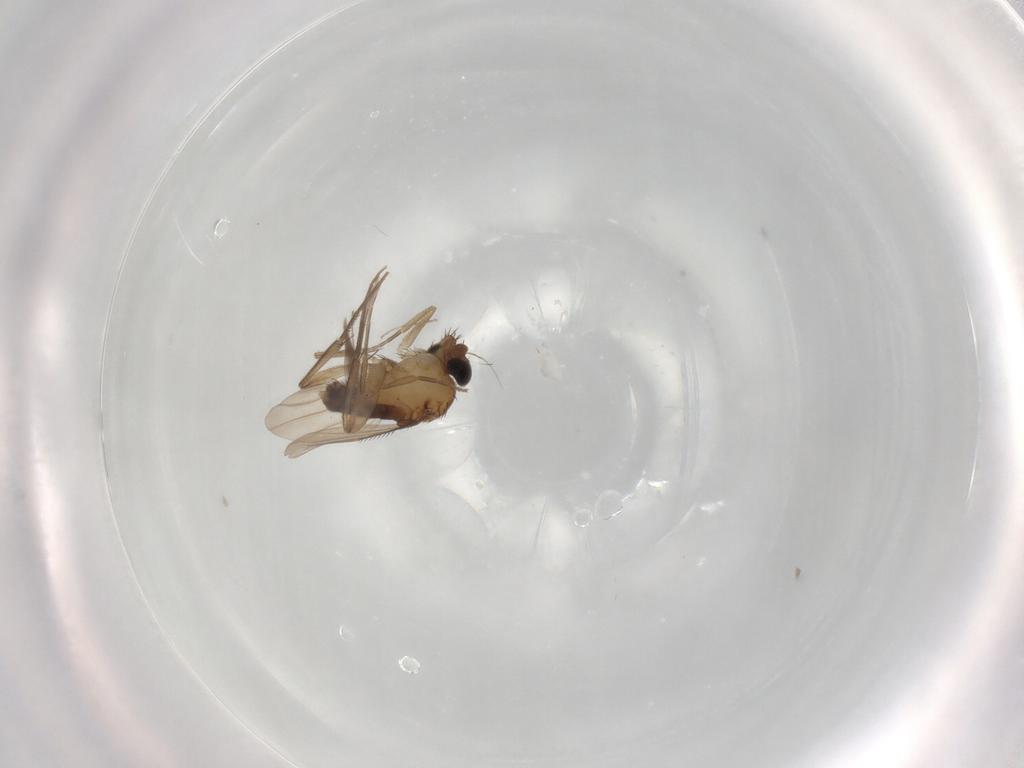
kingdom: Animalia
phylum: Arthropoda
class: Insecta
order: Diptera
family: Phoridae
